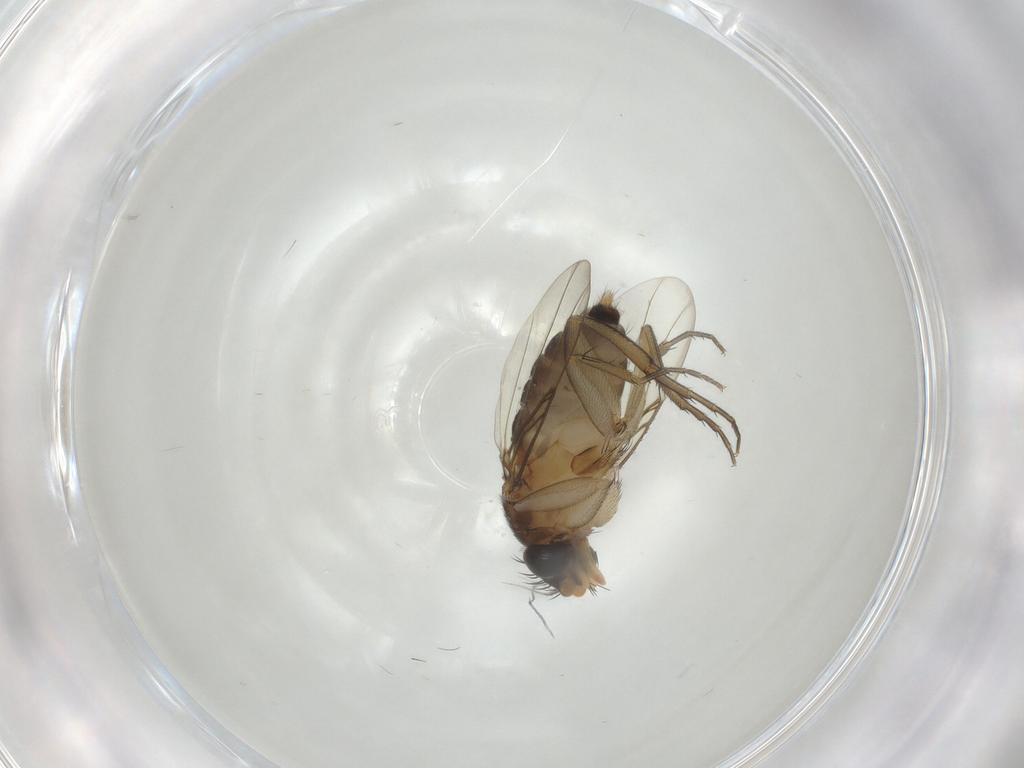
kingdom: Animalia
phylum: Arthropoda
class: Insecta
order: Diptera
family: Phoridae
